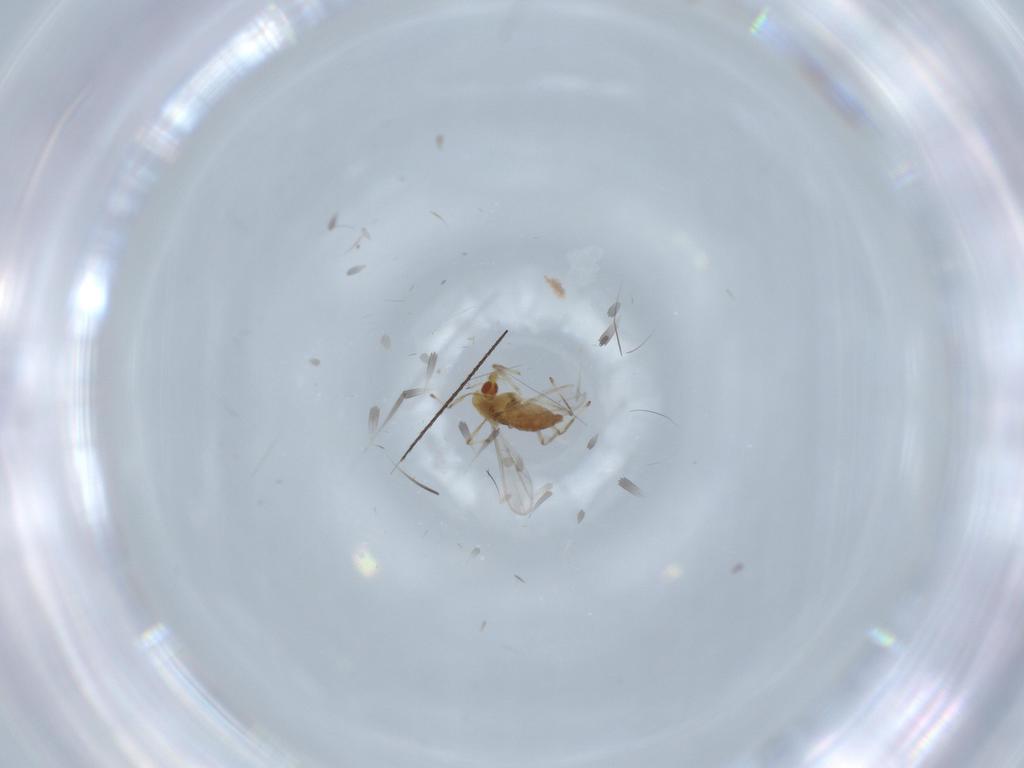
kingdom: Animalia
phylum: Arthropoda
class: Insecta
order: Diptera
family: Chironomidae
